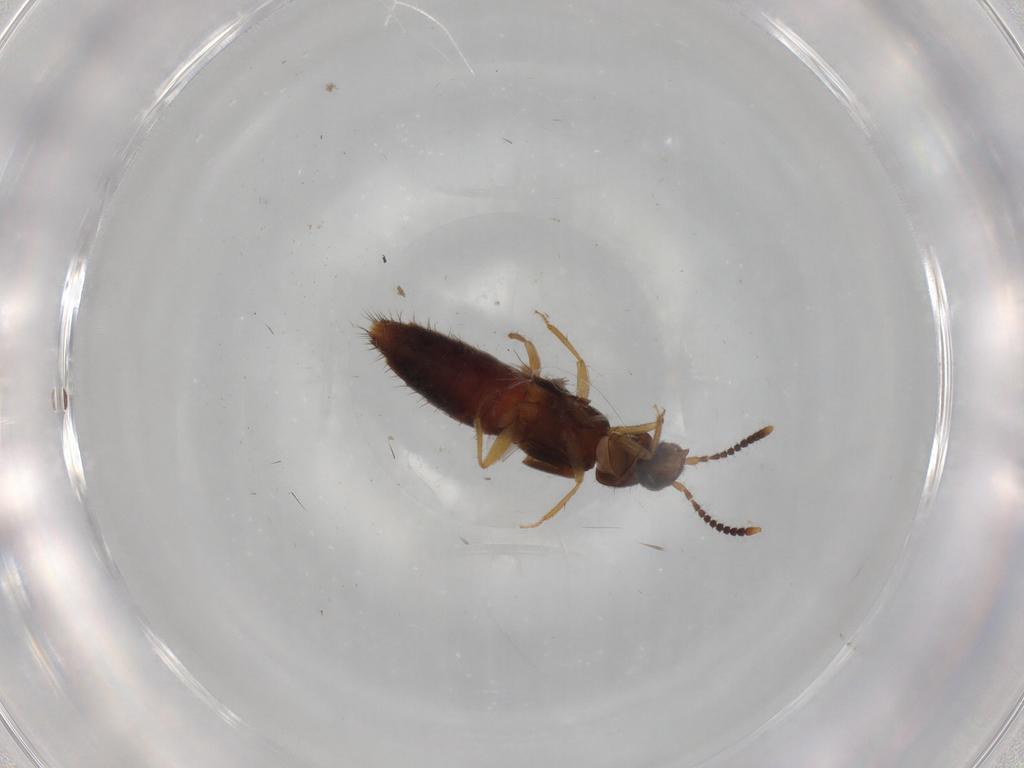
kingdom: Animalia
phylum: Arthropoda
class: Insecta
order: Coleoptera
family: Staphylinidae
